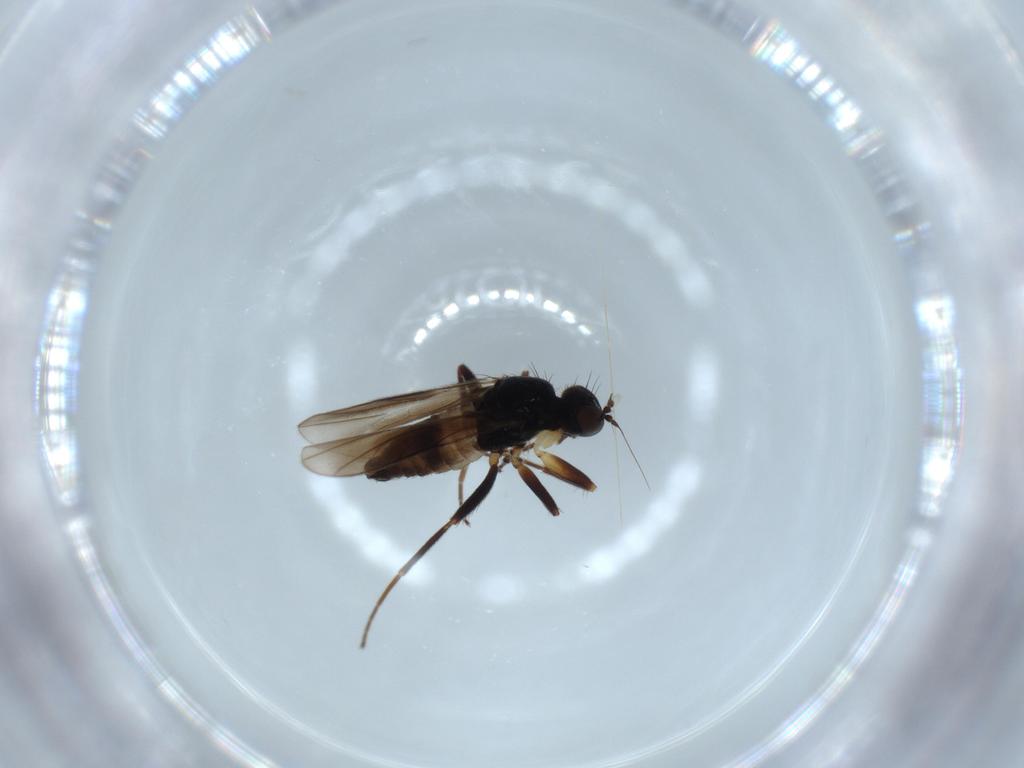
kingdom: Animalia
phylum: Arthropoda
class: Insecta
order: Diptera
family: Hybotidae
